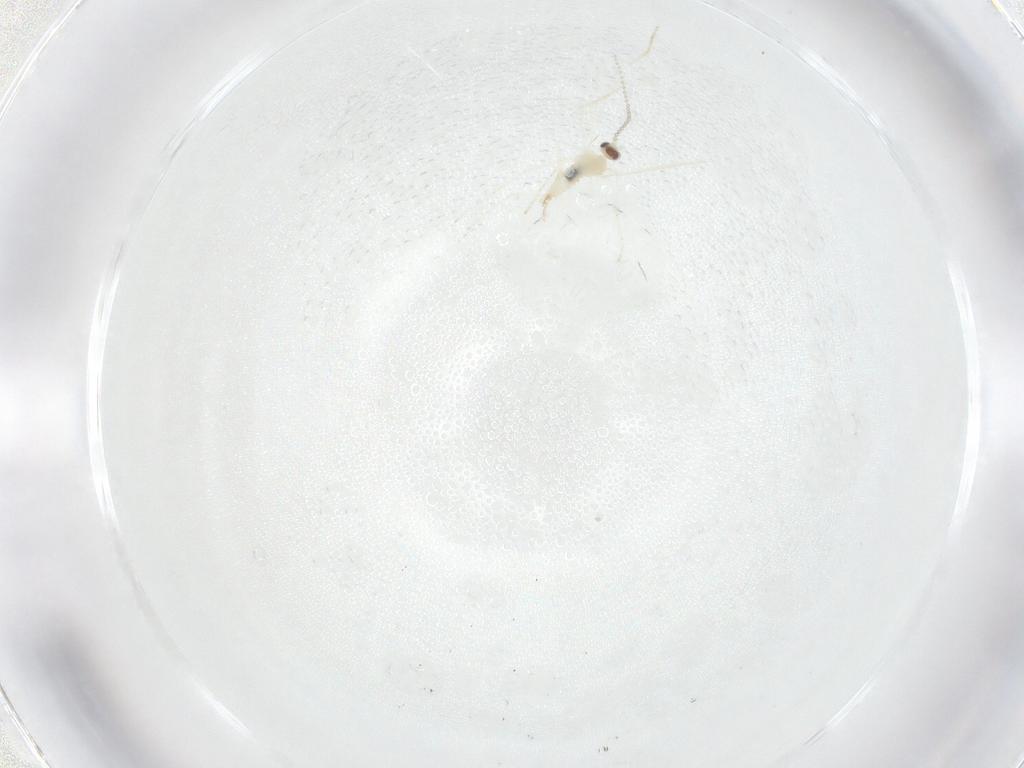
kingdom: Animalia
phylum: Arthropoda
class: Insecta
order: Diptera
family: Cecidomyiidae
